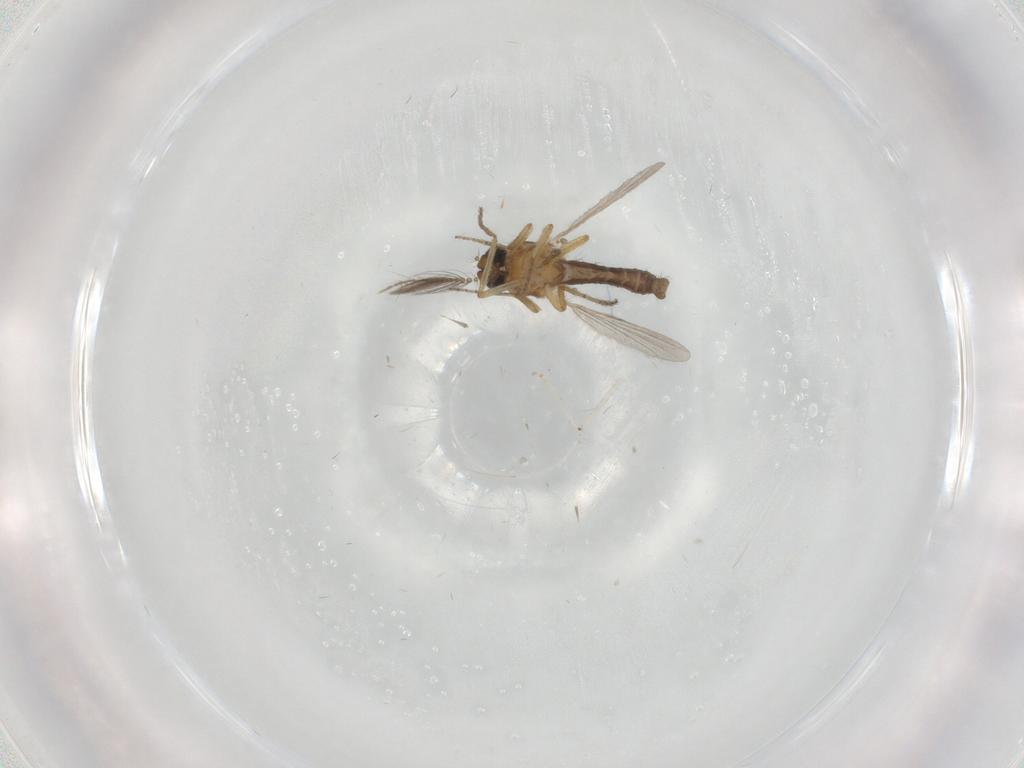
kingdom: Animalia
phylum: Arthropoda
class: Insecta
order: Diptera
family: Ceratopogonidae
